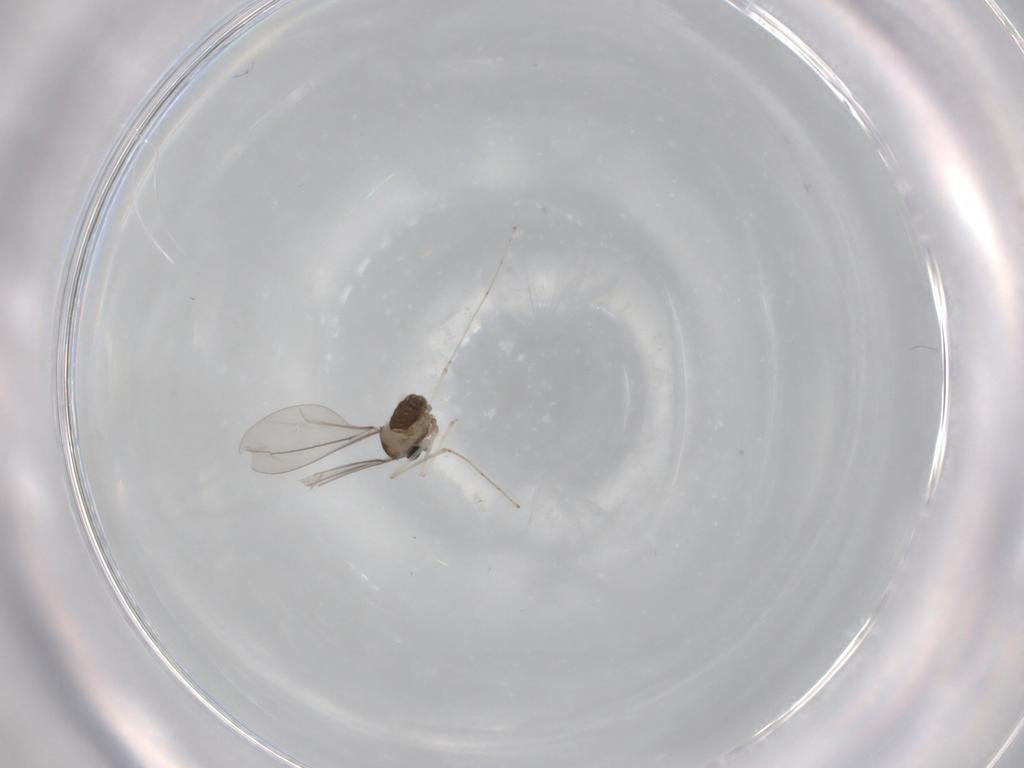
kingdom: Animalia
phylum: Arthropoda
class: Insecta
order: Diptera
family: Cecidomyiidae
